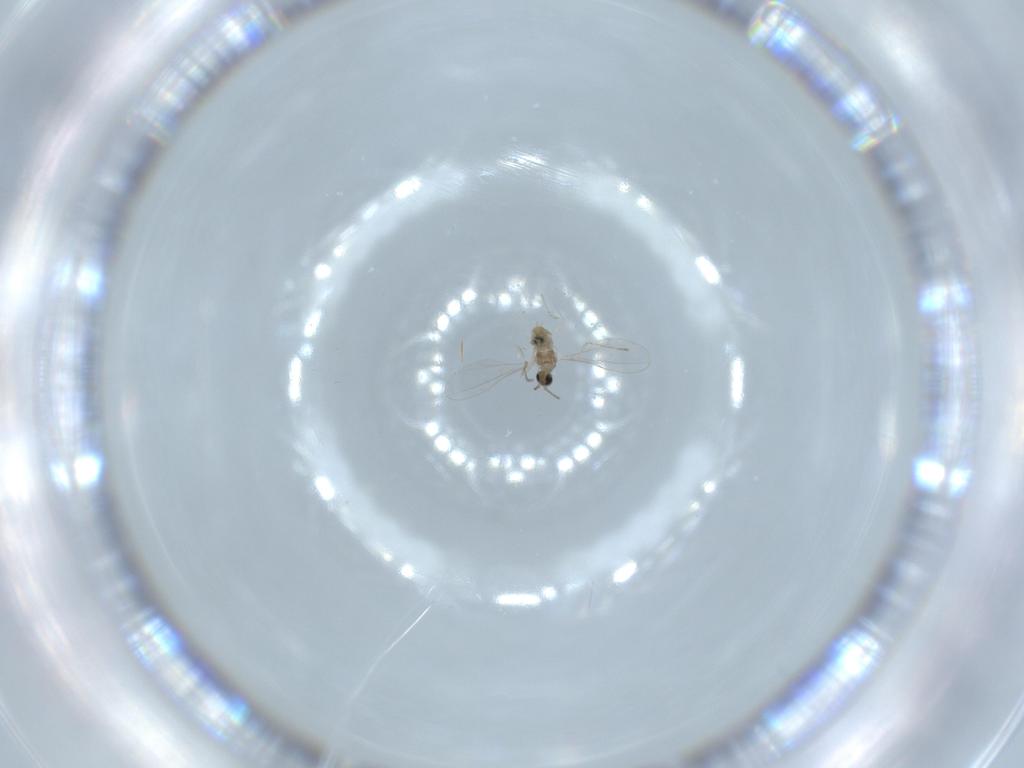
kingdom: Animalia
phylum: Arthropoda
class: Insecta
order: Diptera
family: Cecidomyiidae
